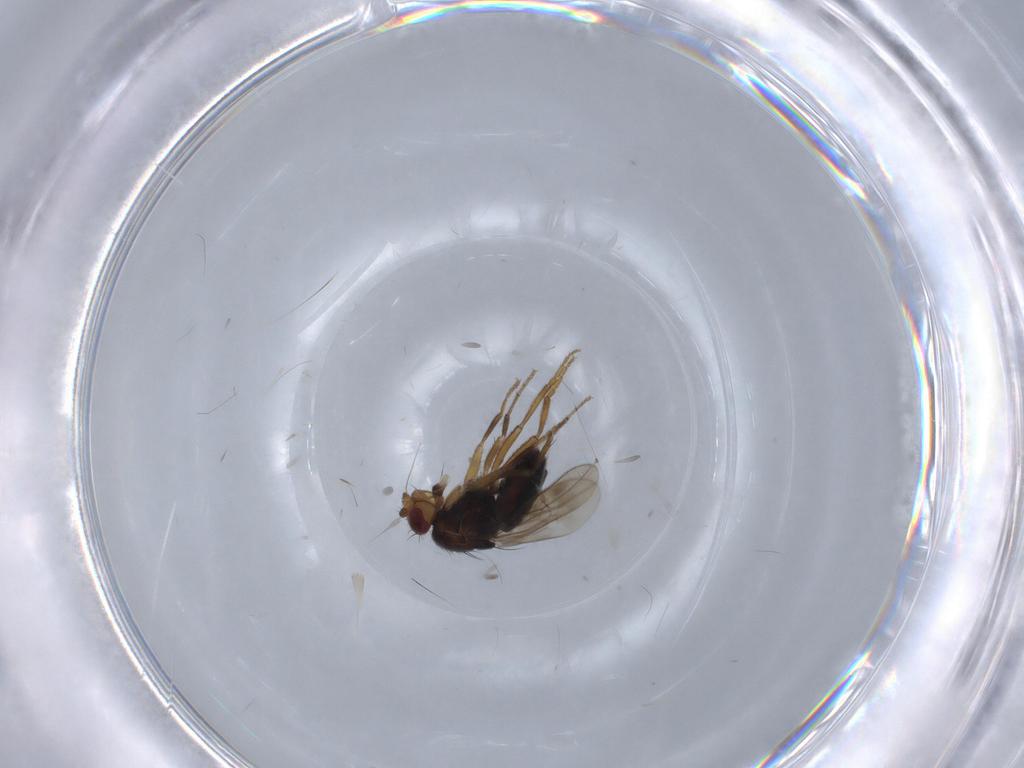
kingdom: Animalia
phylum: Arthropoda
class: Insecta
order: Diptera
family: Sphaeroceridae
